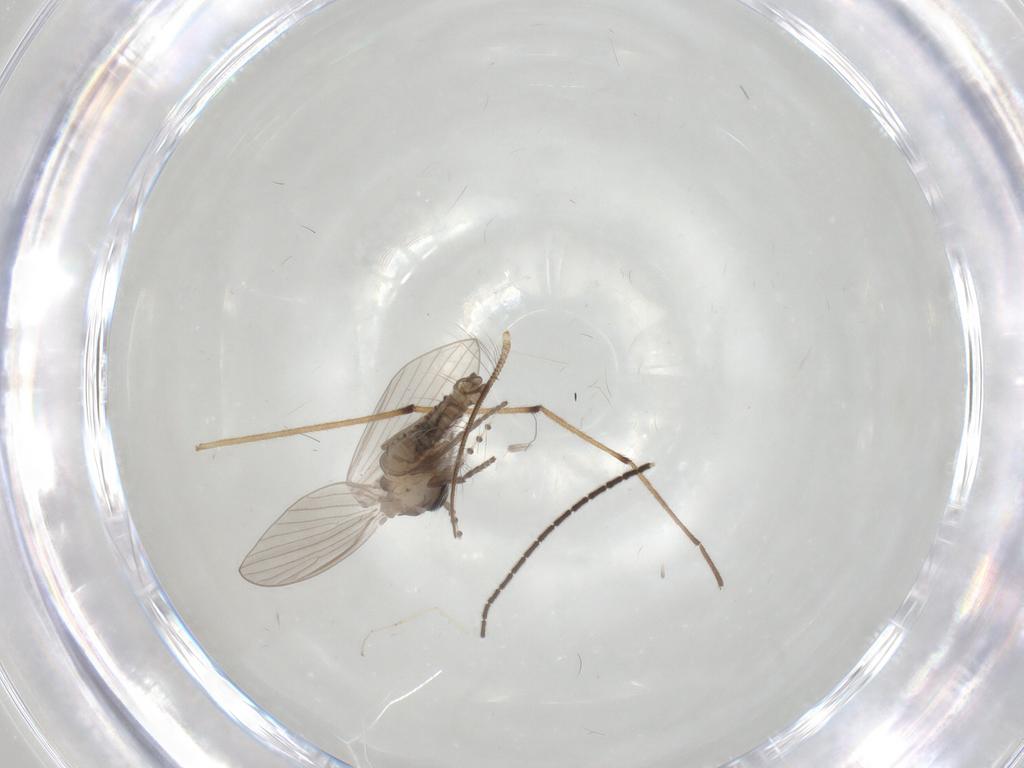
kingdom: Animalia
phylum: Arthropoda
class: Insecta
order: Diptera
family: Psychodidae
